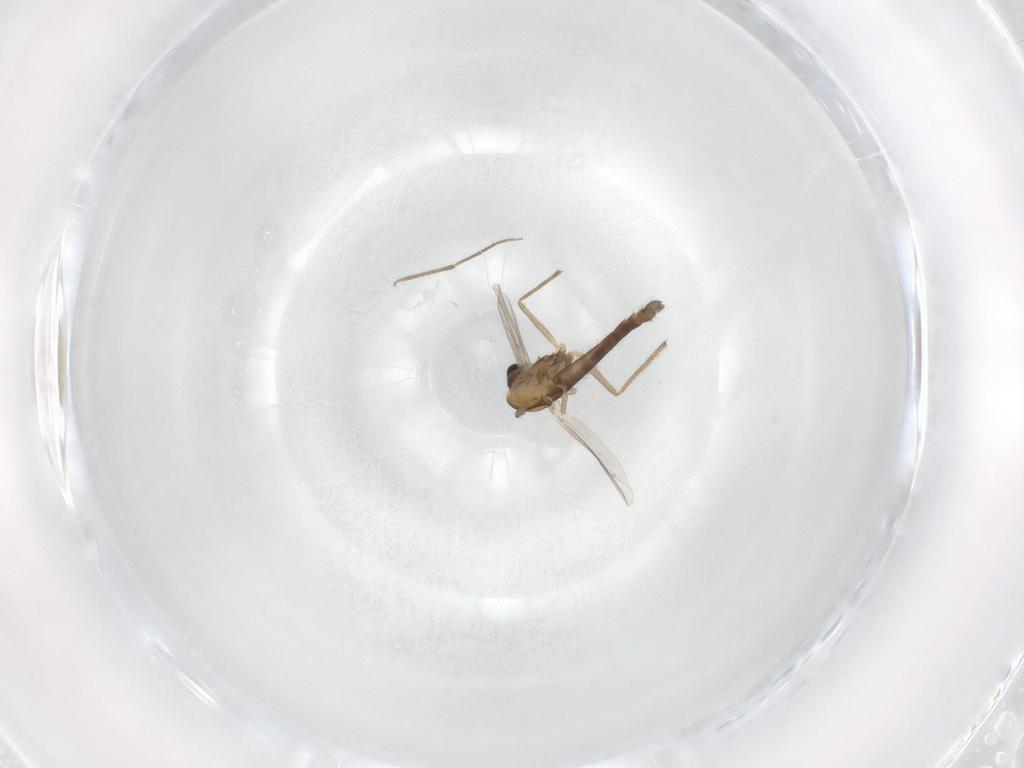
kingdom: Animalia
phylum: Arthropoda
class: Insecta
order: Diptera
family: Chironomidae
